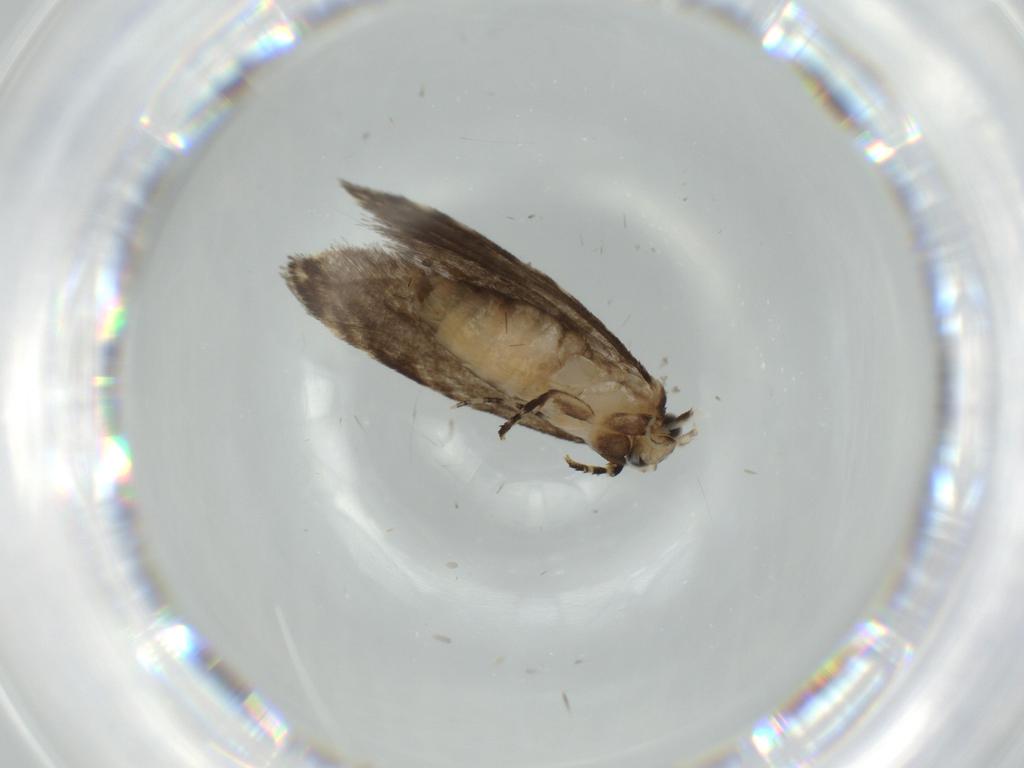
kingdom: Animalia
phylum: Arthropoda
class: Insecta
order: Lepidoptera
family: Tineidae
